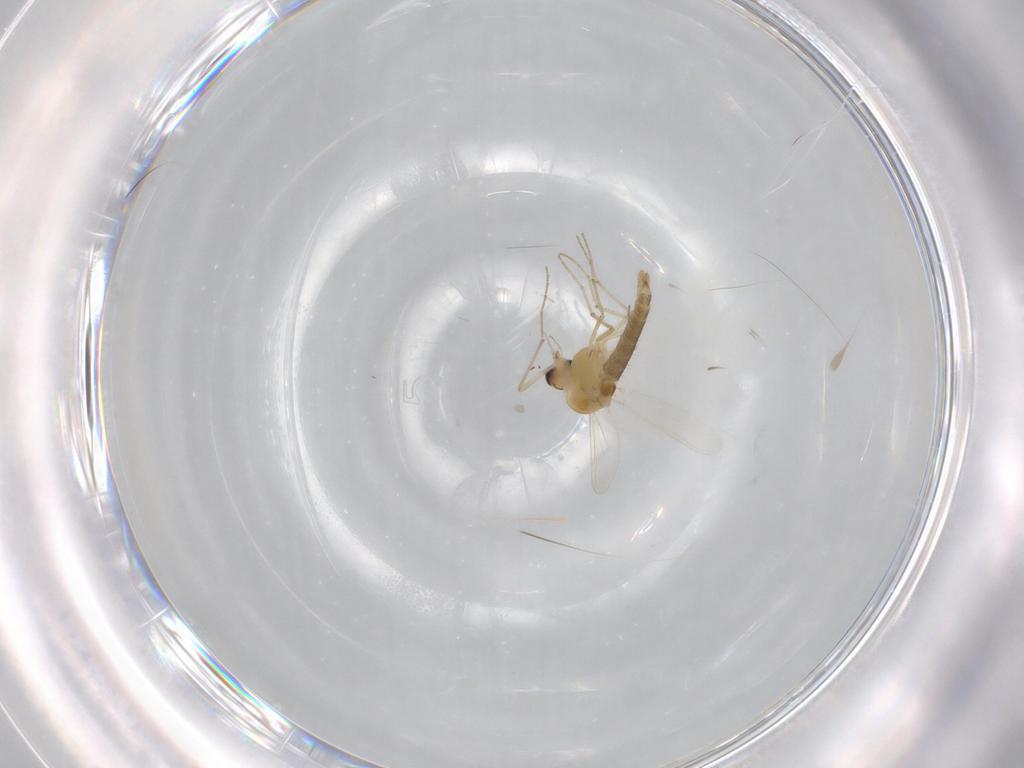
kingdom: Animalia
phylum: Arthropoda
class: Insecta
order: Diptera
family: Chironomidae
